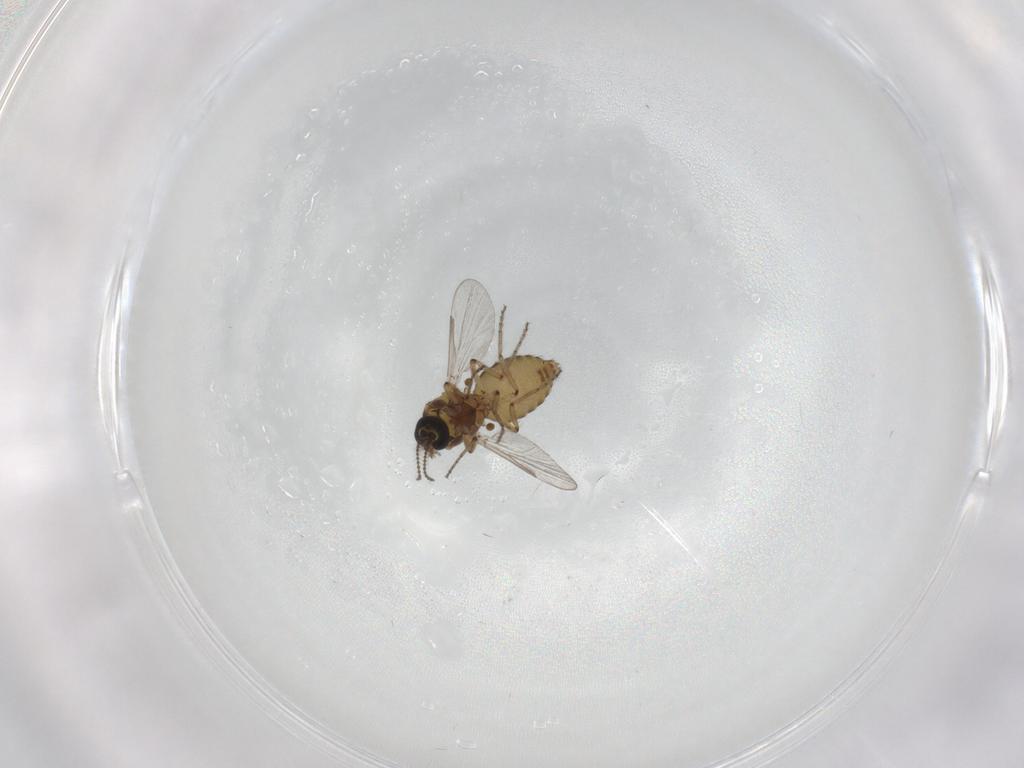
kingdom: Animalia
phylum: Arthropoda
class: Insecta
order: Diptera
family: Ceratopogonidae
